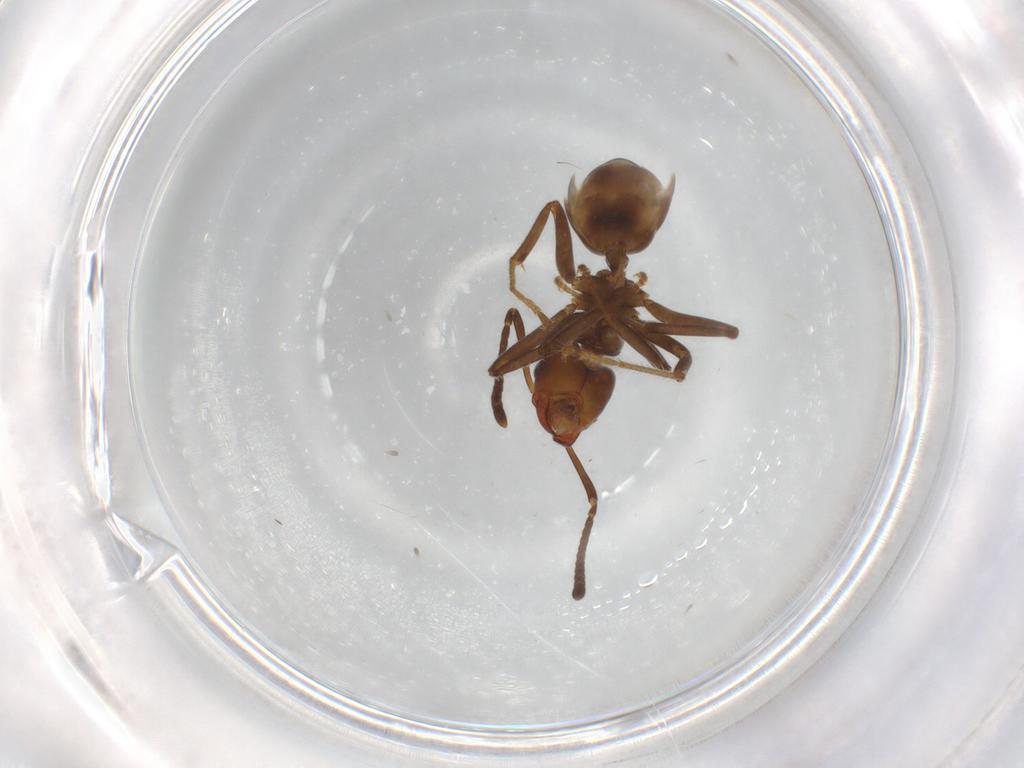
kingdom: Animalia
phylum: Arthropoda
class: Insecta
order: Hymenoptera
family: Formicidae
